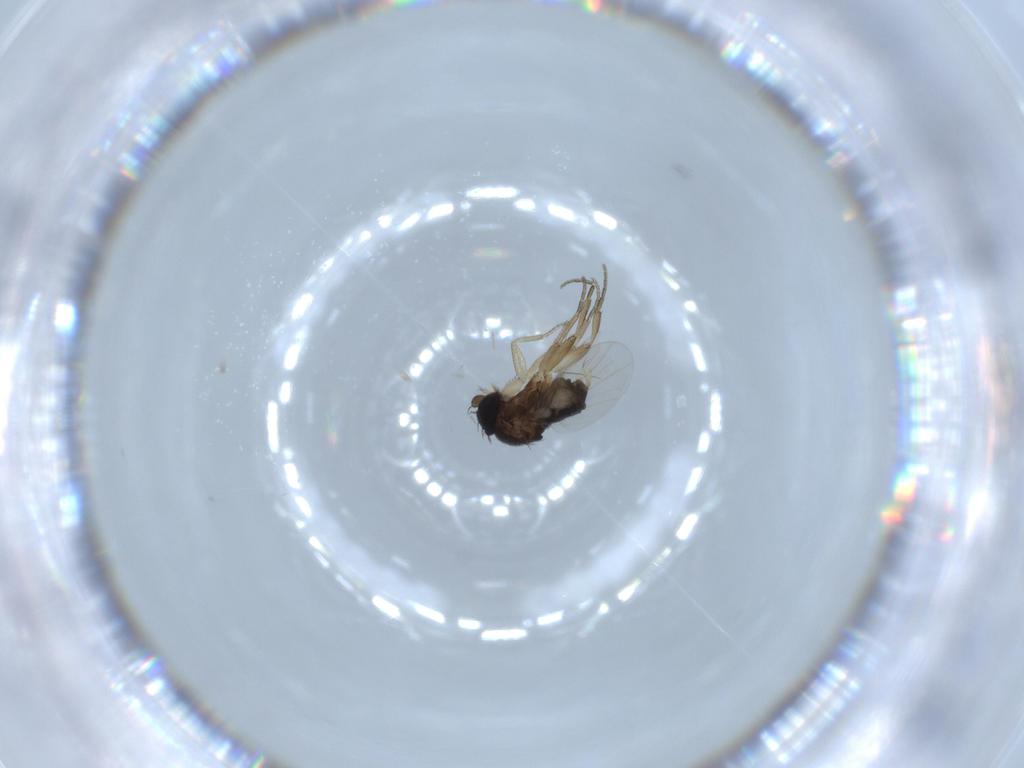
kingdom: Animalia
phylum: Arthropoda
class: Insecta
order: Diptera
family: Phoridae
